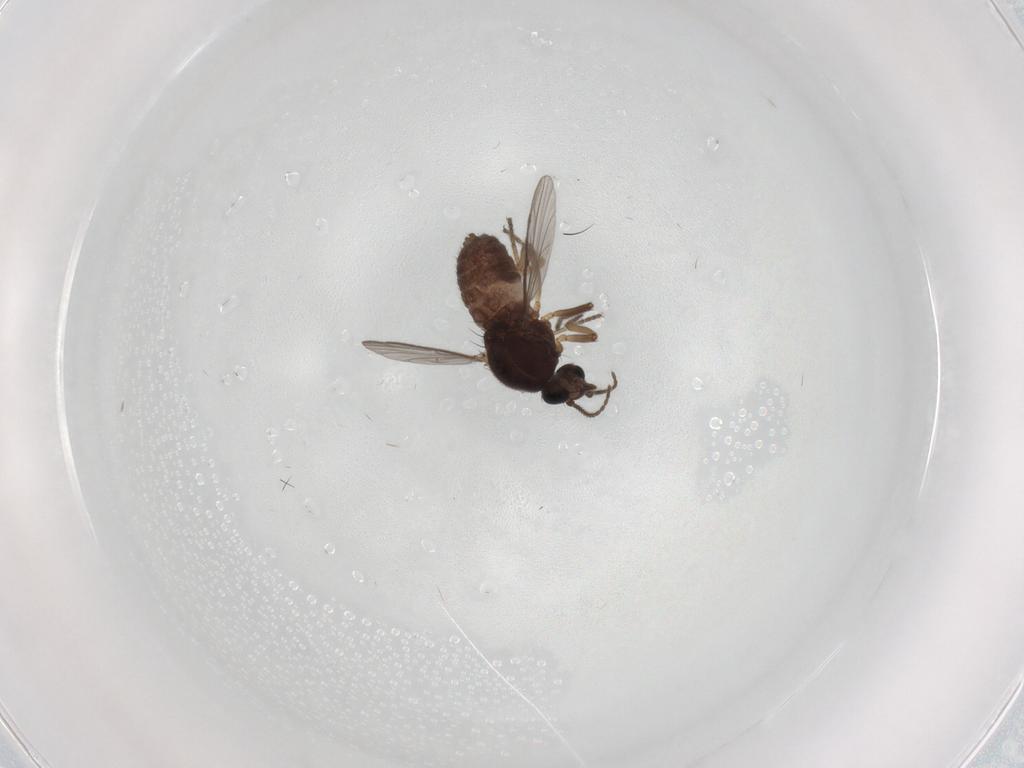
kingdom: Animalia
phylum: Arthropoda
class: Insecta
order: Diptera
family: Ceratopogonidae
